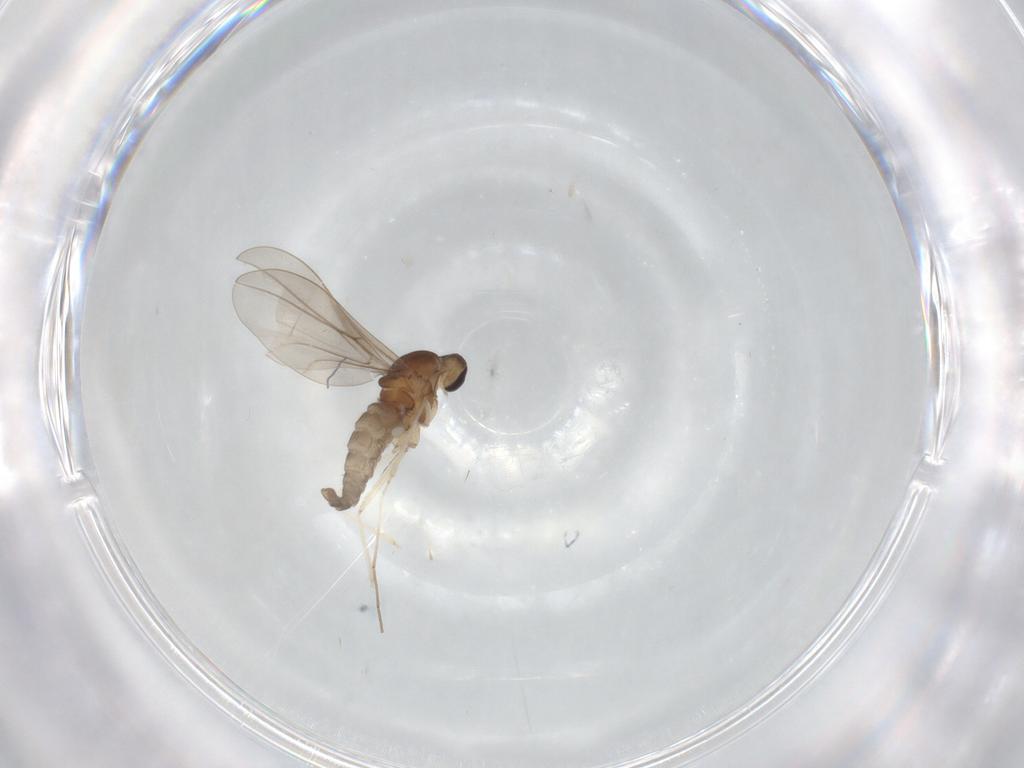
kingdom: Animalia
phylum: Arthropoda
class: Insecta
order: Diptera
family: Cecidomyiidae
